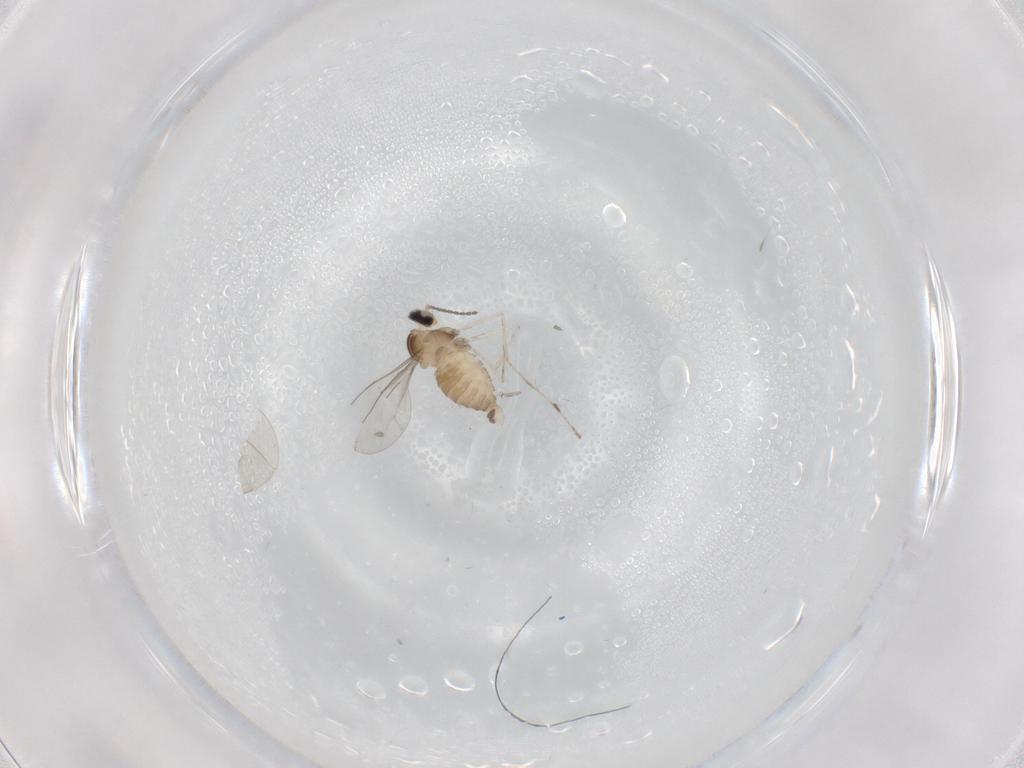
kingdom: Animalia
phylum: Arthropoda
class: Insecta
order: Diptera
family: Cecidomyiidae
